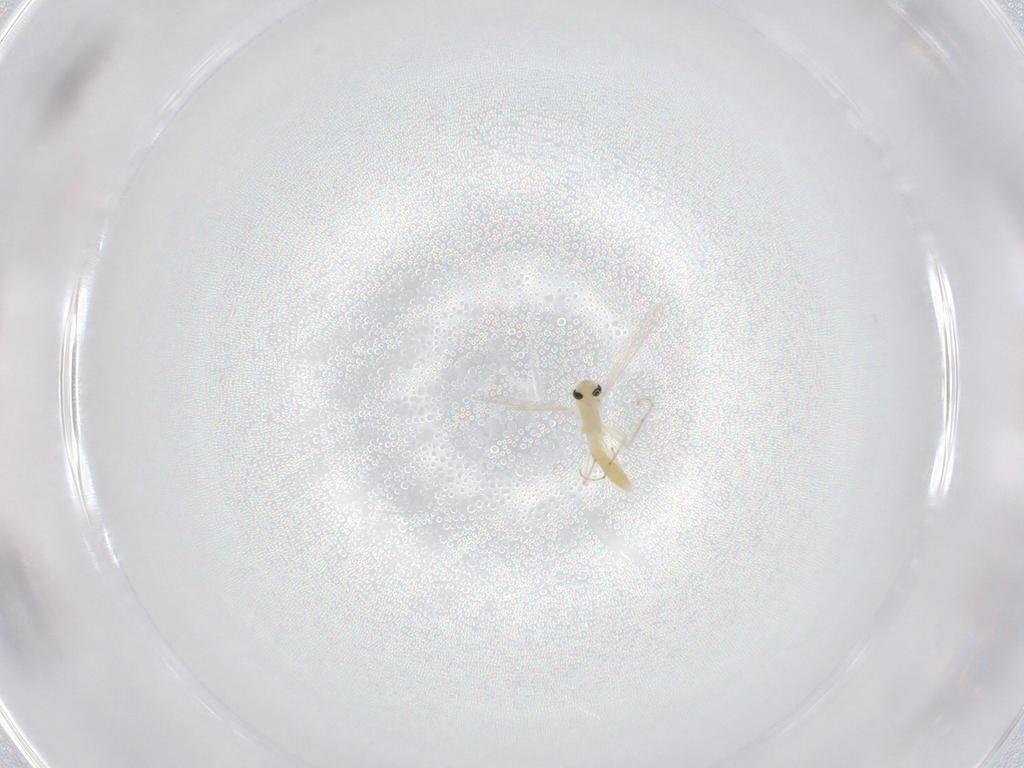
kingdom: Animalia
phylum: Arthropoda
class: Insecta
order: Diptera
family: Chironomidae
